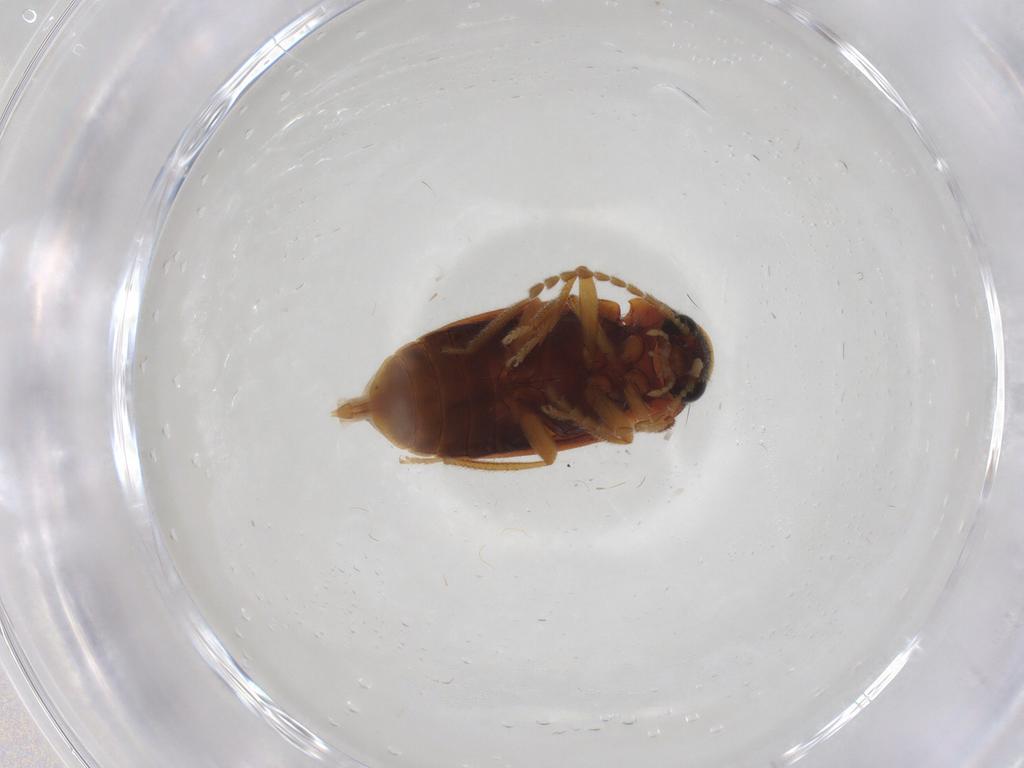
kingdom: Animalia
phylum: Arthropoda
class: Insecta
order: Coleoptera
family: Ptilodactylidae
